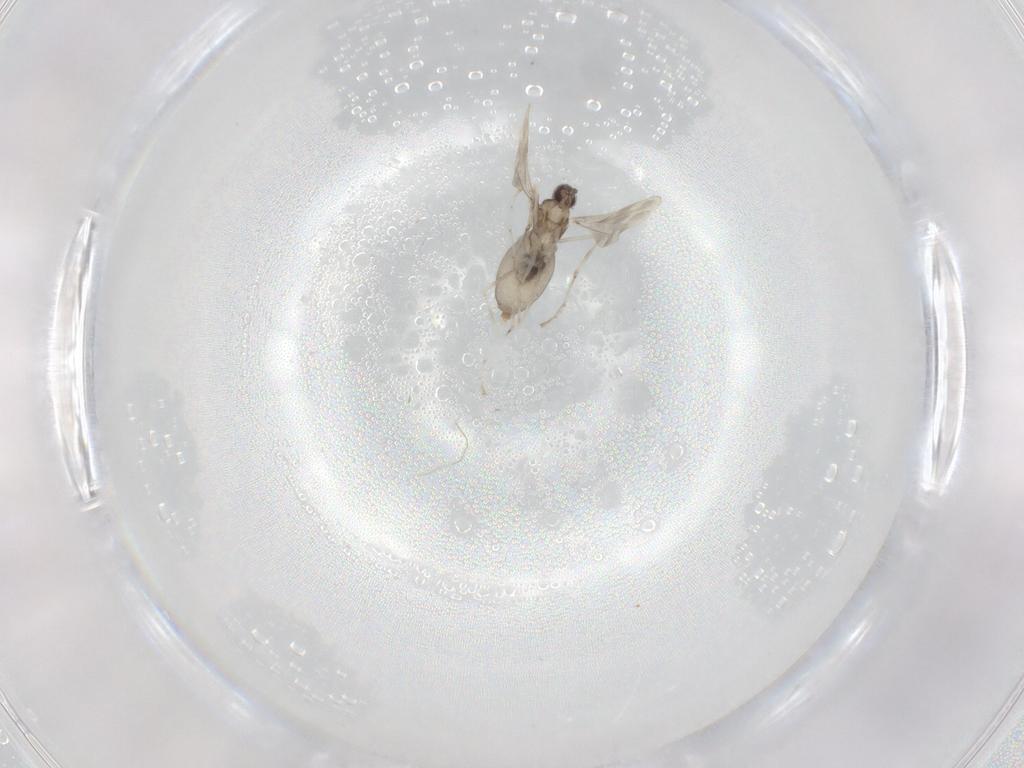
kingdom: Animalia
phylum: Arthropoda
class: Insecta
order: Diptera
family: Cecidomyiidae
